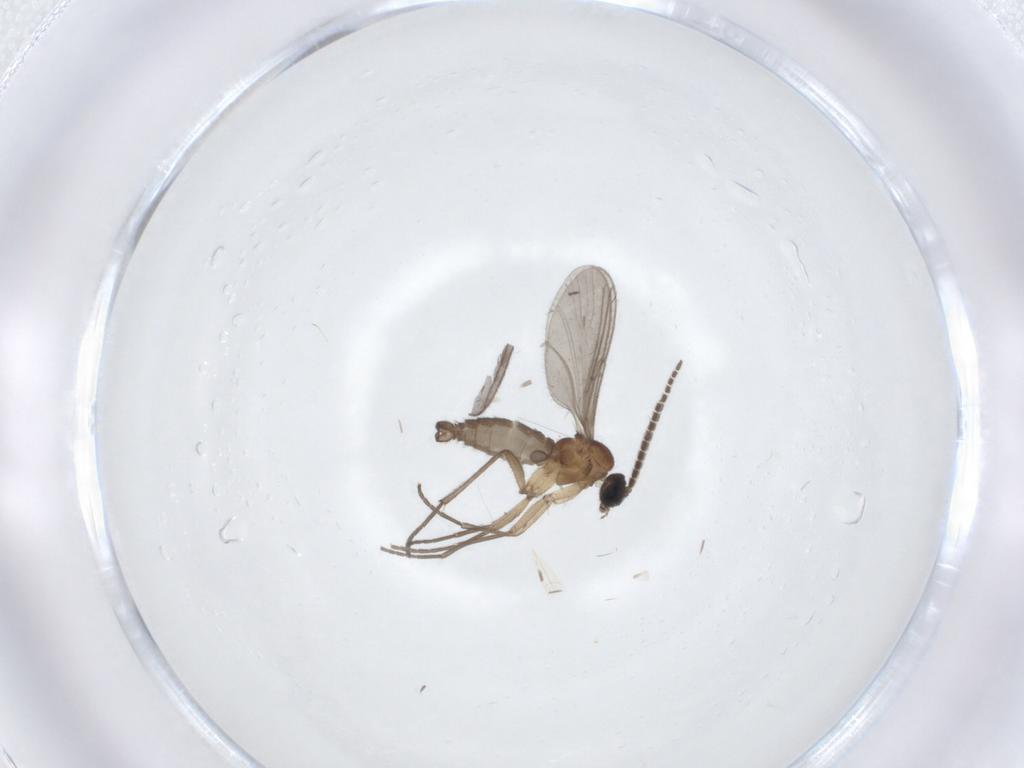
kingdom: Animalia
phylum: Arthropoda
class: Insecta
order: Diptera
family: Sciaridae
